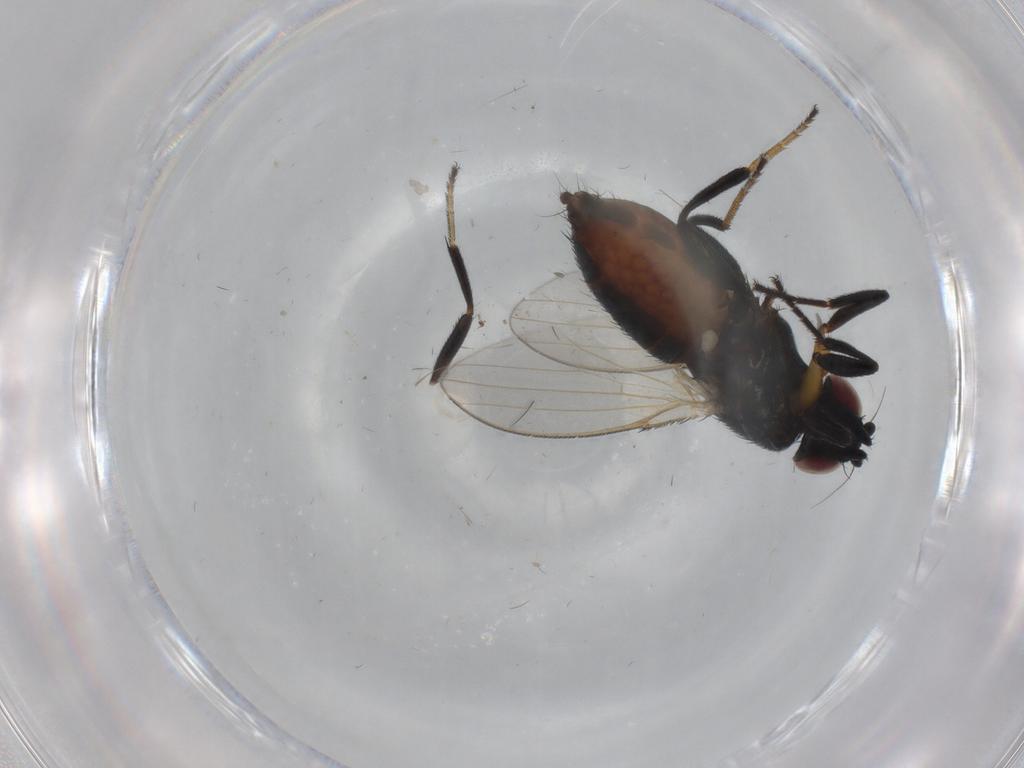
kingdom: Animalia
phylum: Arthropoda
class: Insecta
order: Diptera
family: Milichiidae
